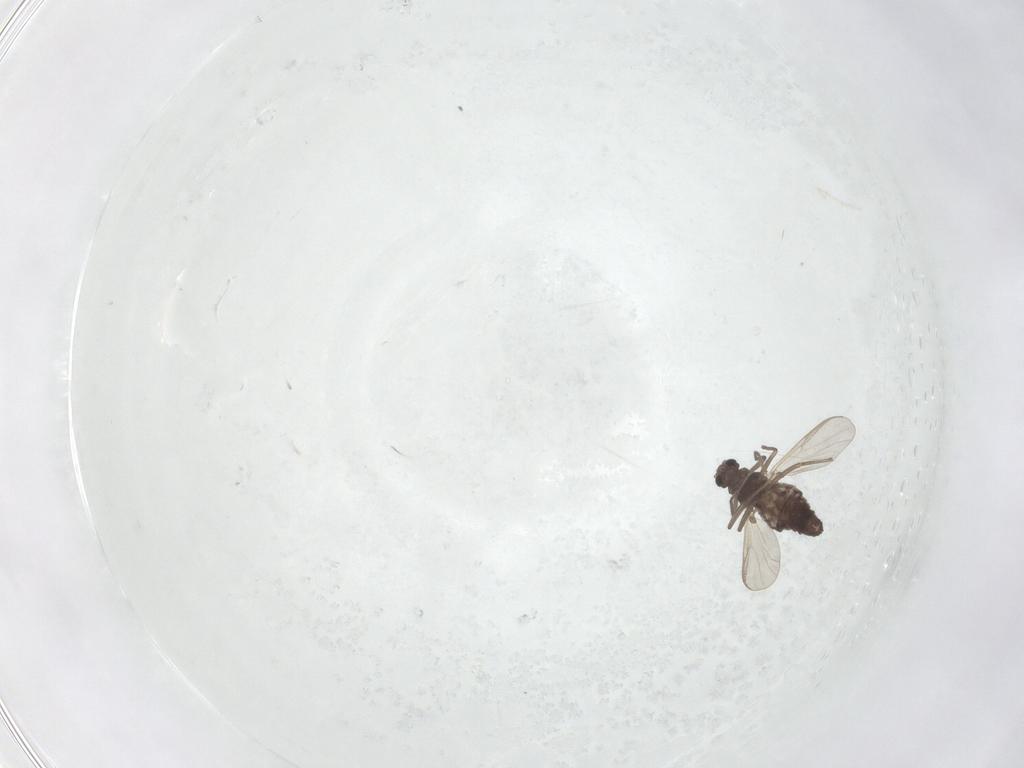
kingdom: Animalia
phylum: Arthropoda
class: Insecta
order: Diptera
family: Chironomidae
